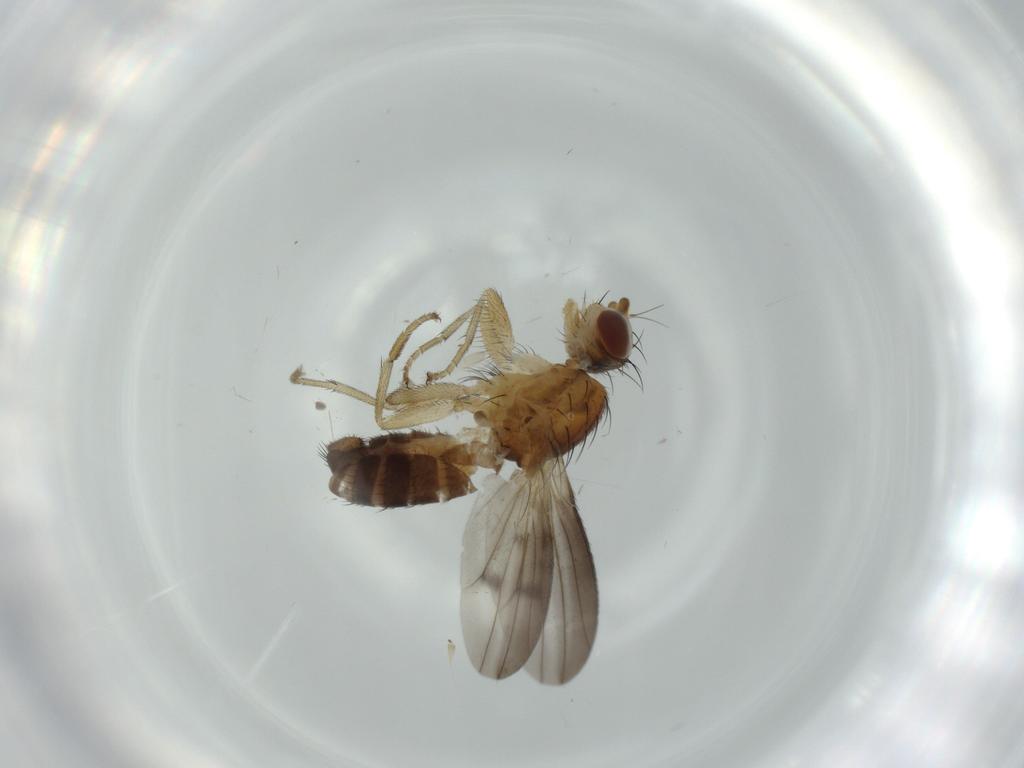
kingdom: Animalia
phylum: Arthropoda
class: Insecta
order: Diptera
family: Heleomyzidae
